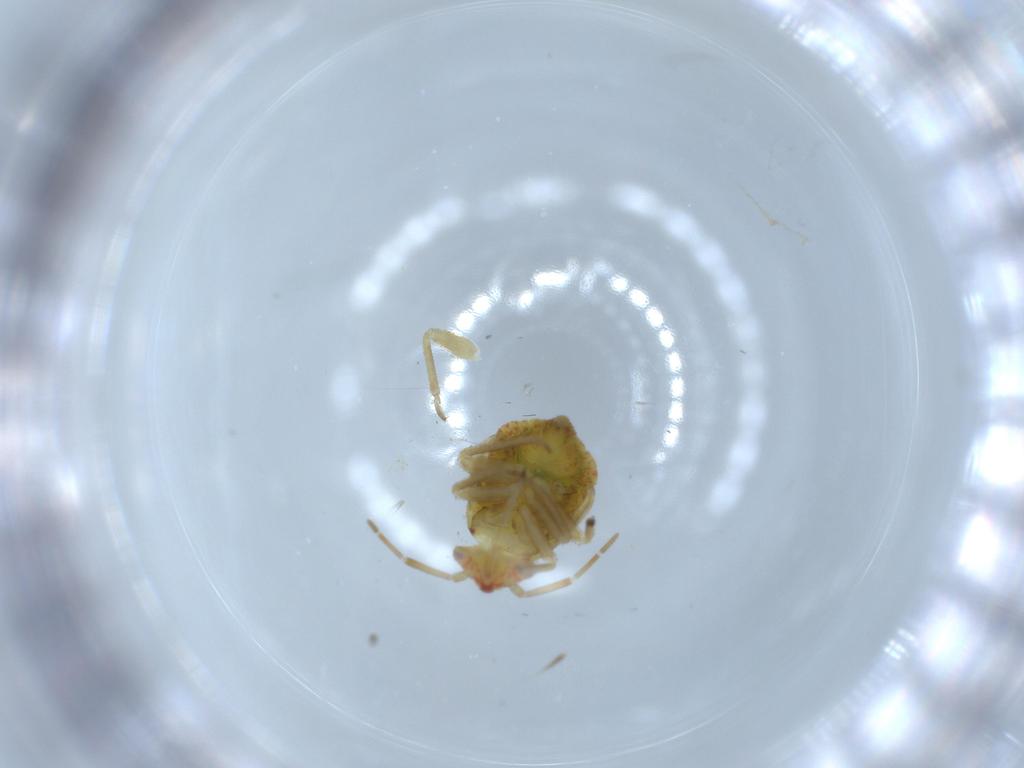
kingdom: Animalia
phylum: Arthropoda
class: Insecta
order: Hemiptera
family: Miridae
